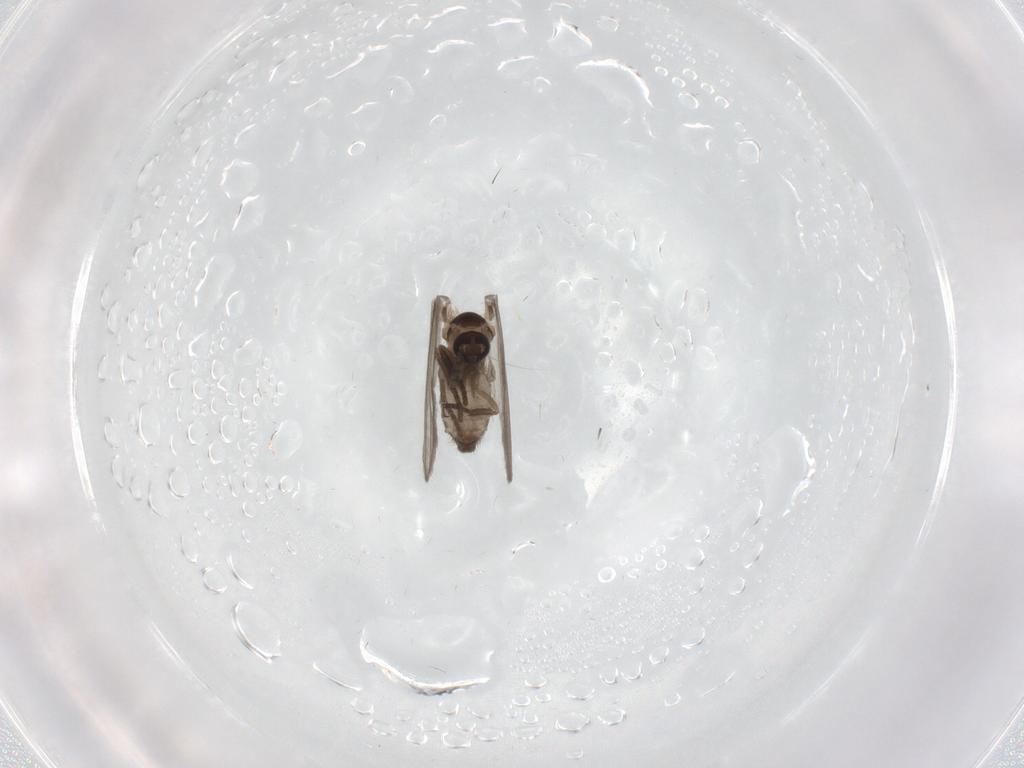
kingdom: Animalia
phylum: Arthropoda
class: Insecta
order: Diptera
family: Psychodidae
